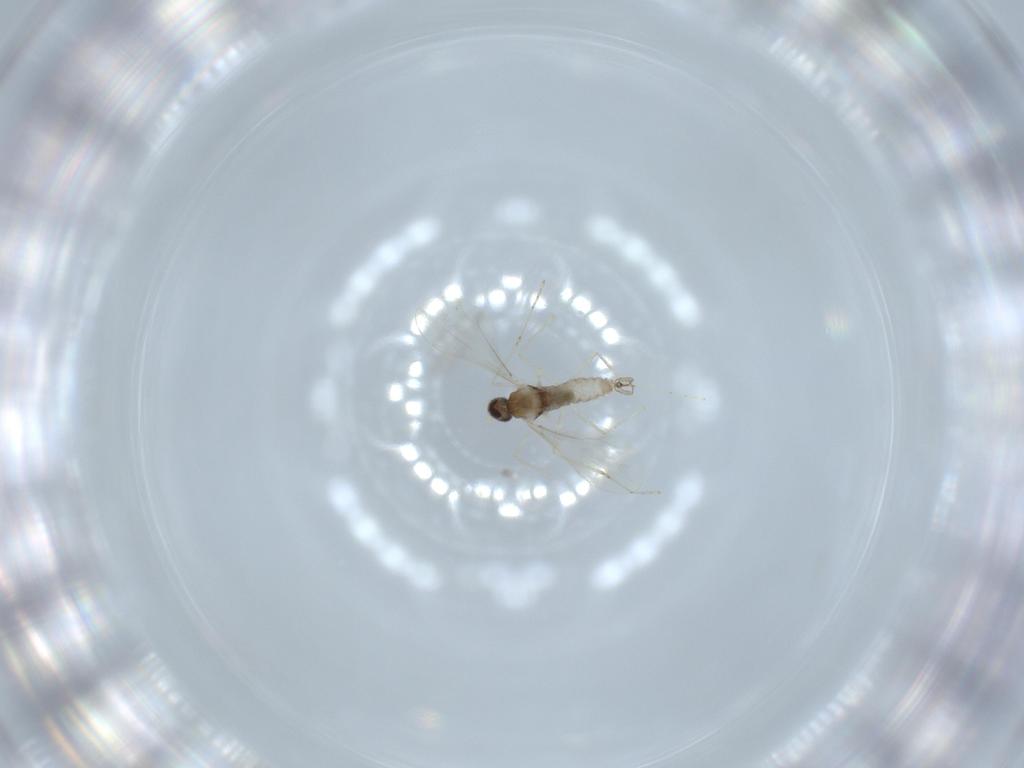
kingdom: Animalia
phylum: Arthropoda
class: Insecta
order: Diptera
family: Cecidomyiidae
